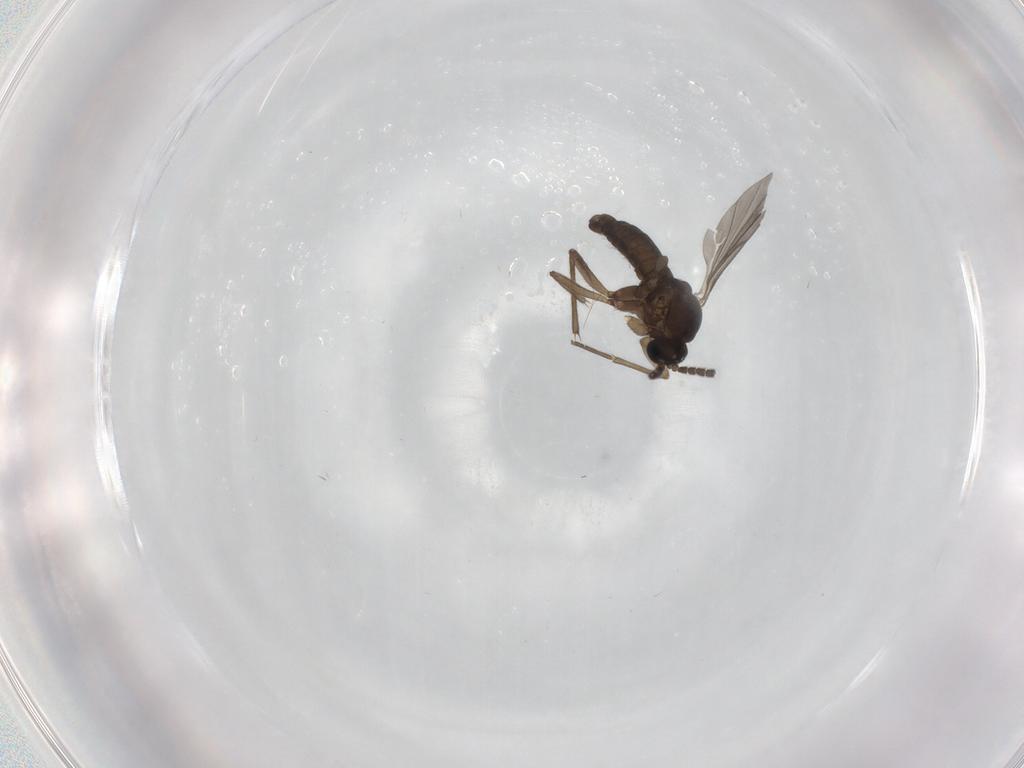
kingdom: Animalia
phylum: Arthropoda
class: Insecta
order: Diptera
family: Sciaridae
